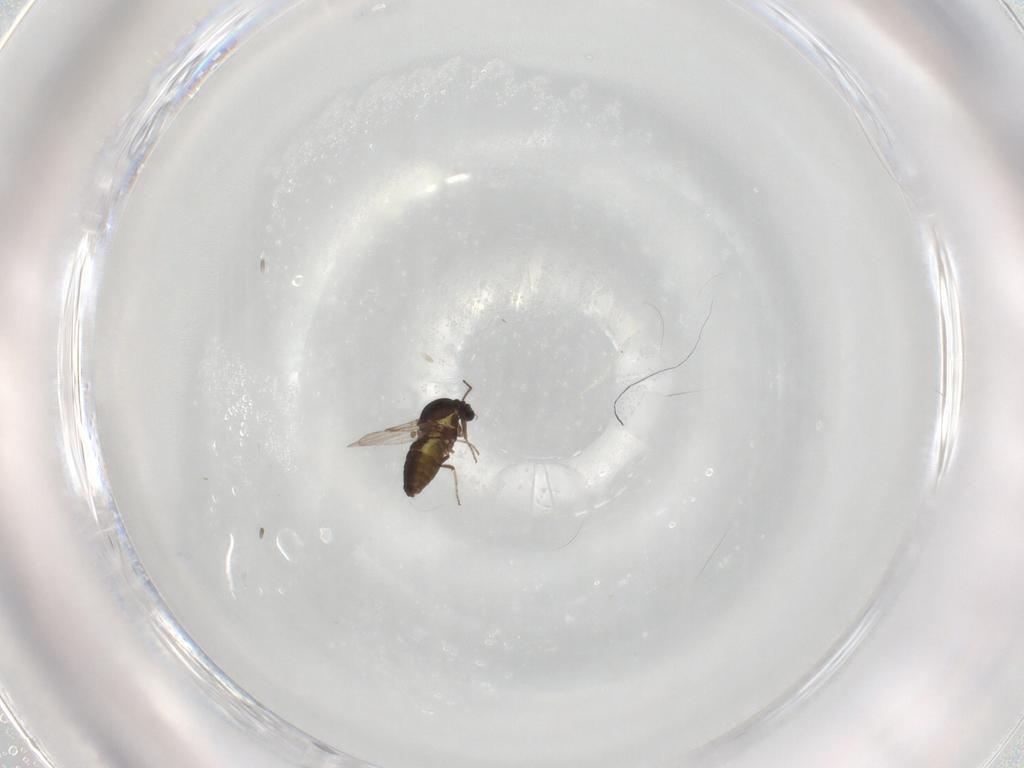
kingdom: Animalia
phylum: Arthropoda
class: Insecta
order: Diptera
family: Ceratopogonidae
